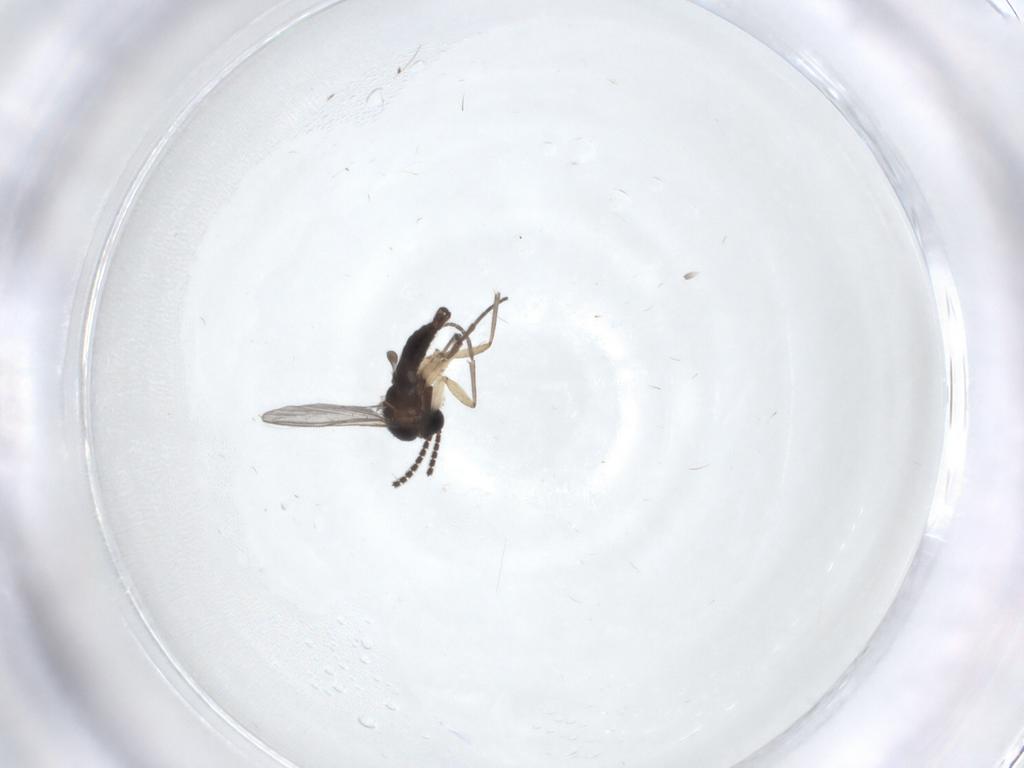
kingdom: Animalia
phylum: Arthropoda
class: Insecta
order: Diptera
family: Sciaridae
